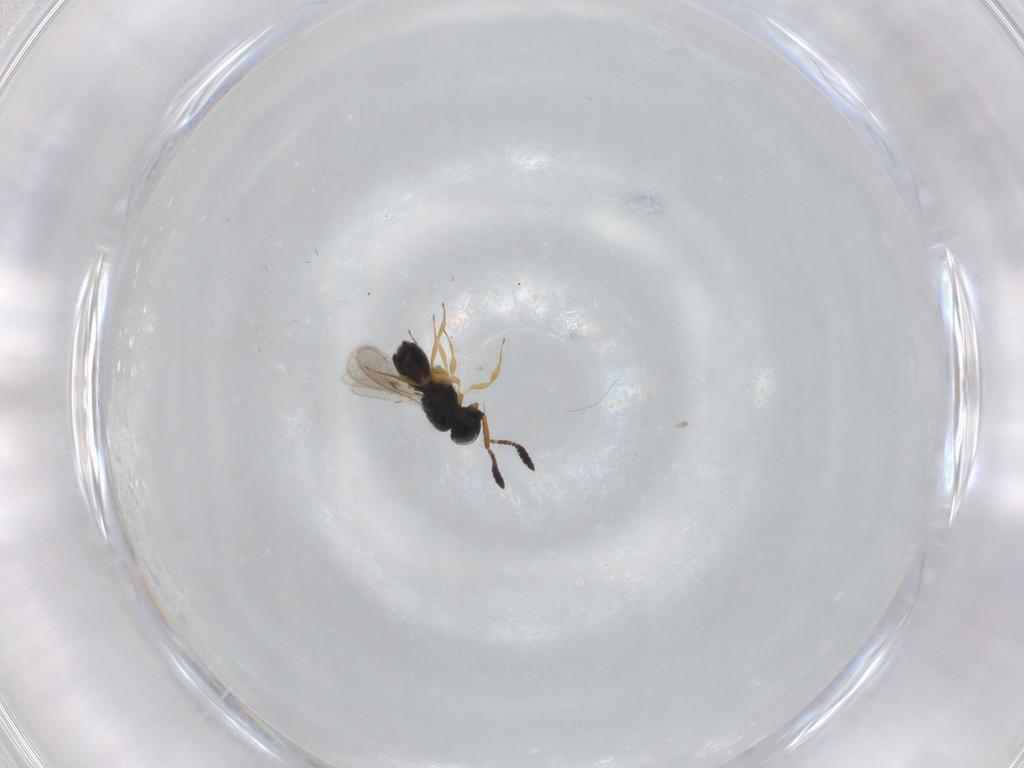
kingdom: Animalia
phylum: Arthropoda
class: Insecta
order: Hymenoptera
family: Scelionidae
